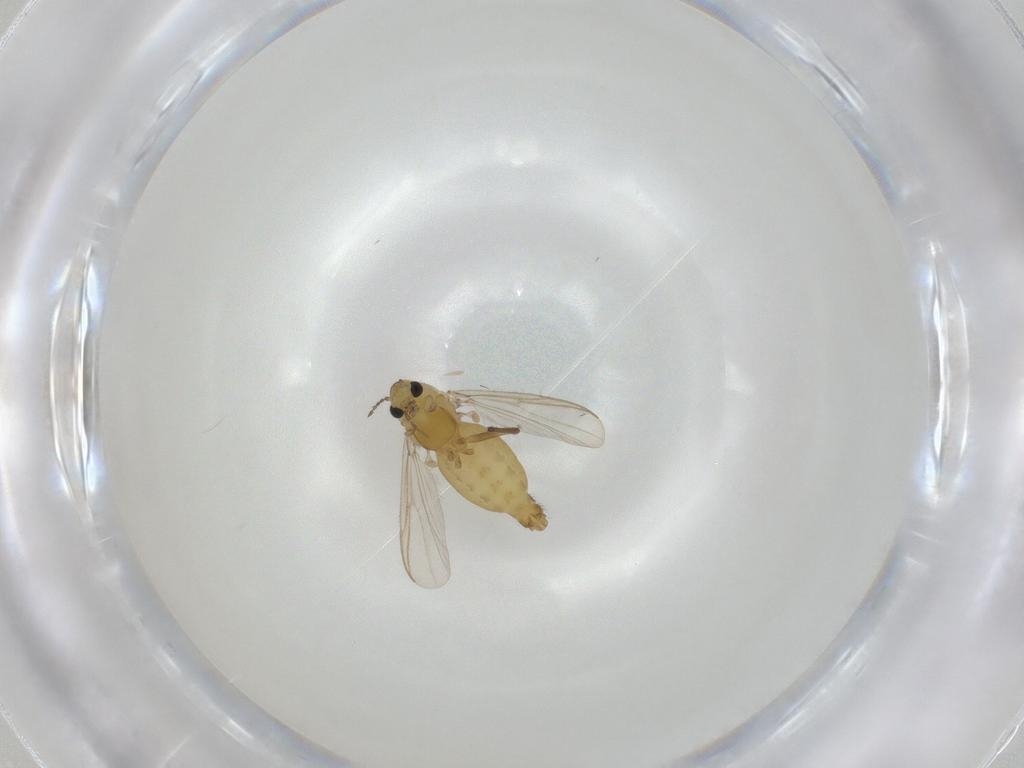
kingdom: Animalia
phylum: Arthropoda
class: Insecta
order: Diptera
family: Chironomidae
